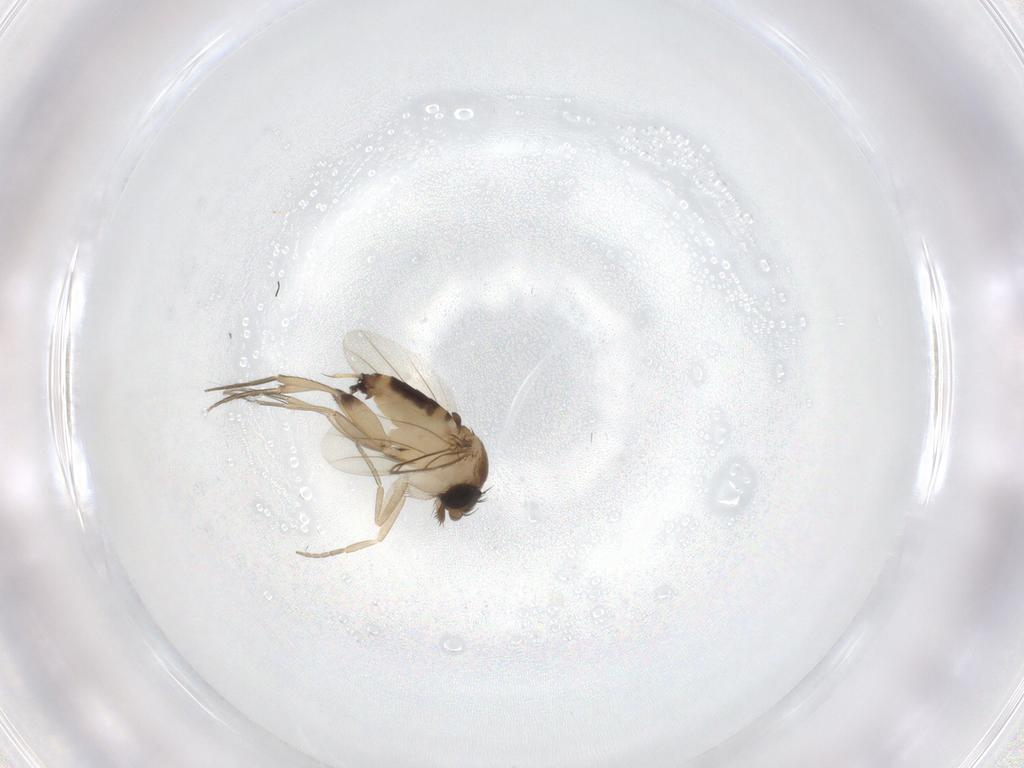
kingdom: Animalia
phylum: Arthropoda
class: Insecta
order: Diptera
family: Phoridae
